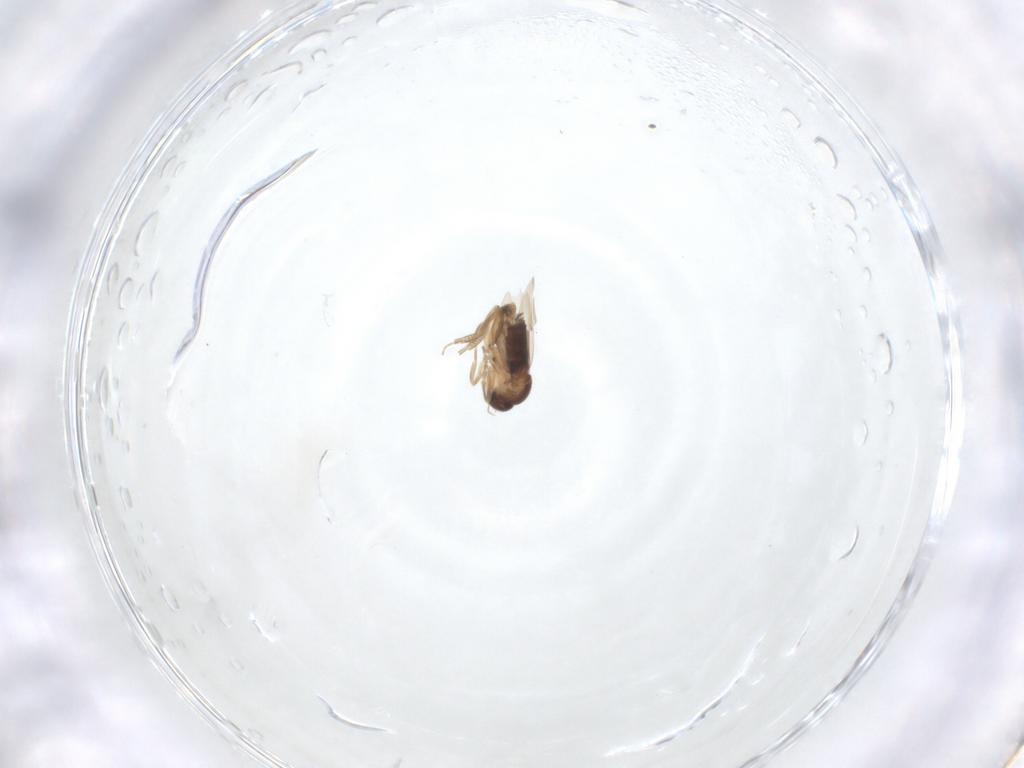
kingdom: Animalia
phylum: Arthropoda
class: Insecta
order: Diptera
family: Phoridae
